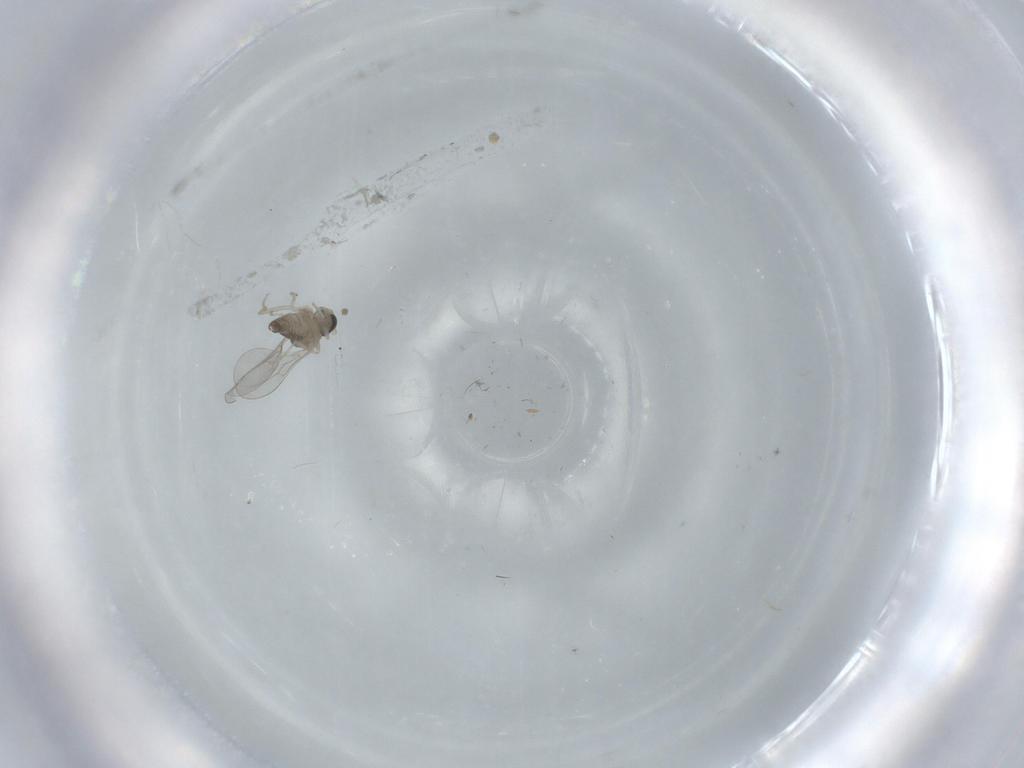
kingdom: Animalia
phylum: Arthropoda
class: Insecta
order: Diptera
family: Cecidomyiidae
